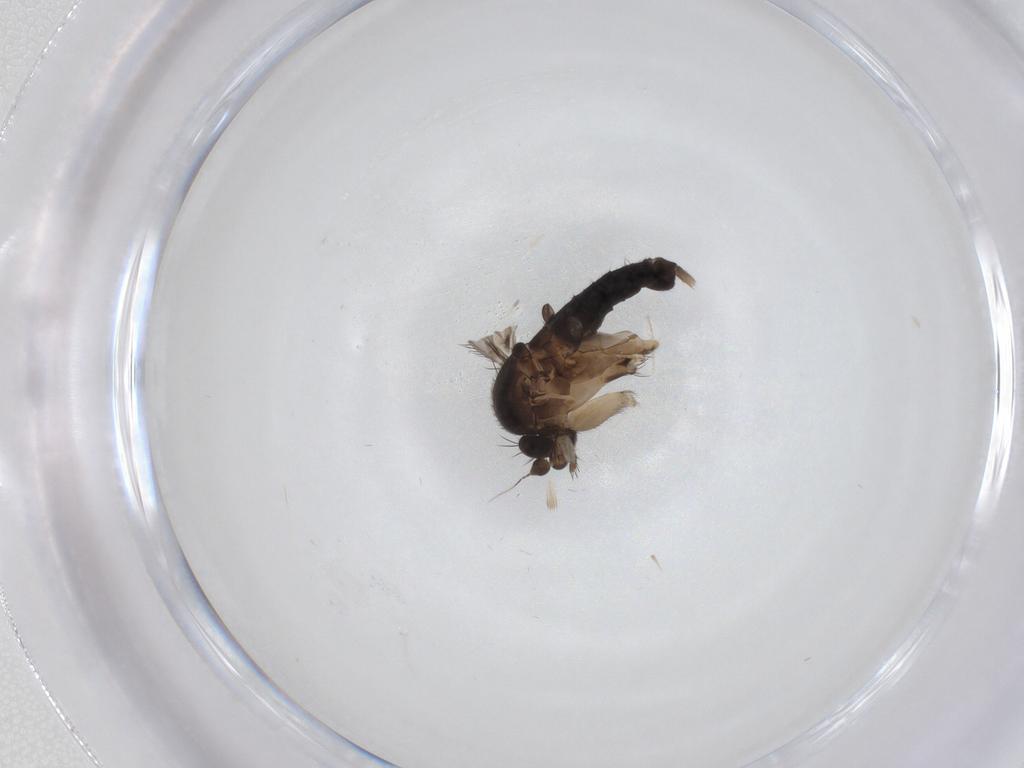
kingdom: Animalia
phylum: Arthropoda
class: Insecta
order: Diptera
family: Phoridae
